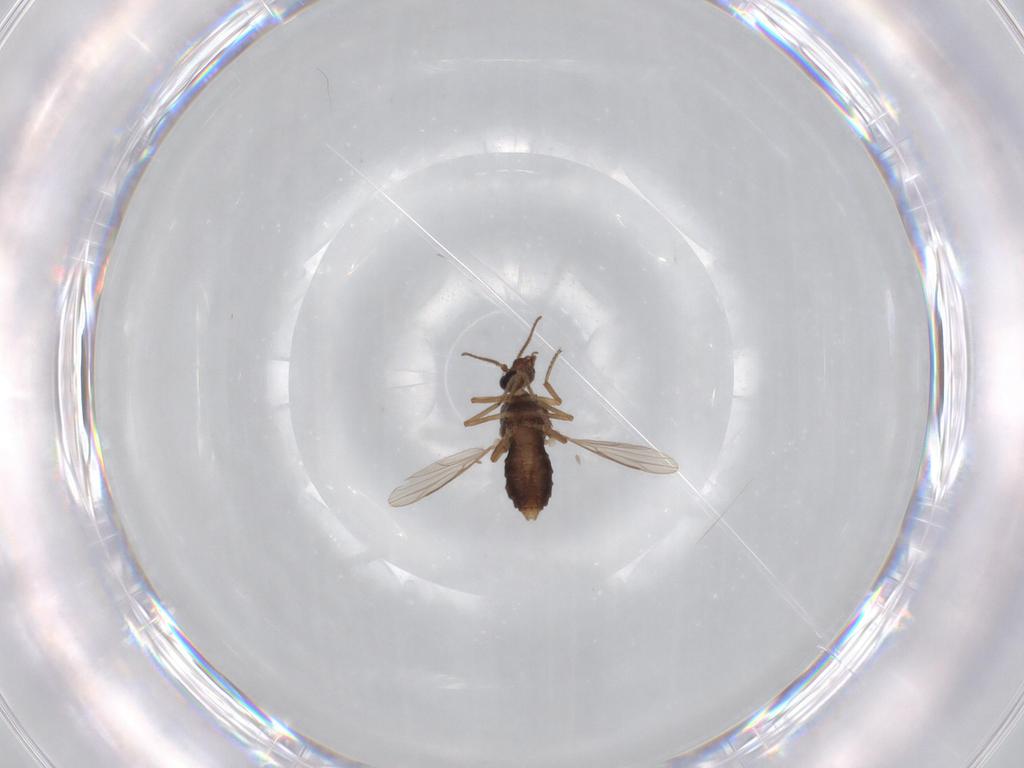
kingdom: Animalia
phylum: Arthropoda
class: Insecta
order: Diptera
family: Ceratopogonidae
